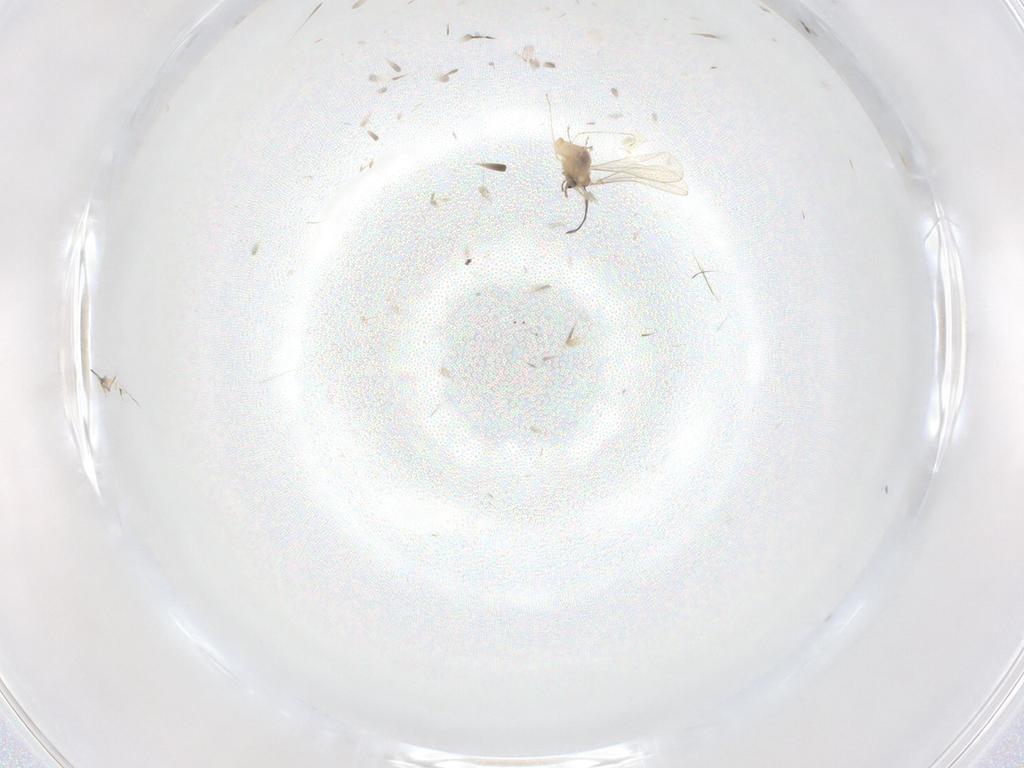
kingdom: Animalia
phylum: Arthropoda
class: Insecta
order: Diptera
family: Cecidomyiidae
